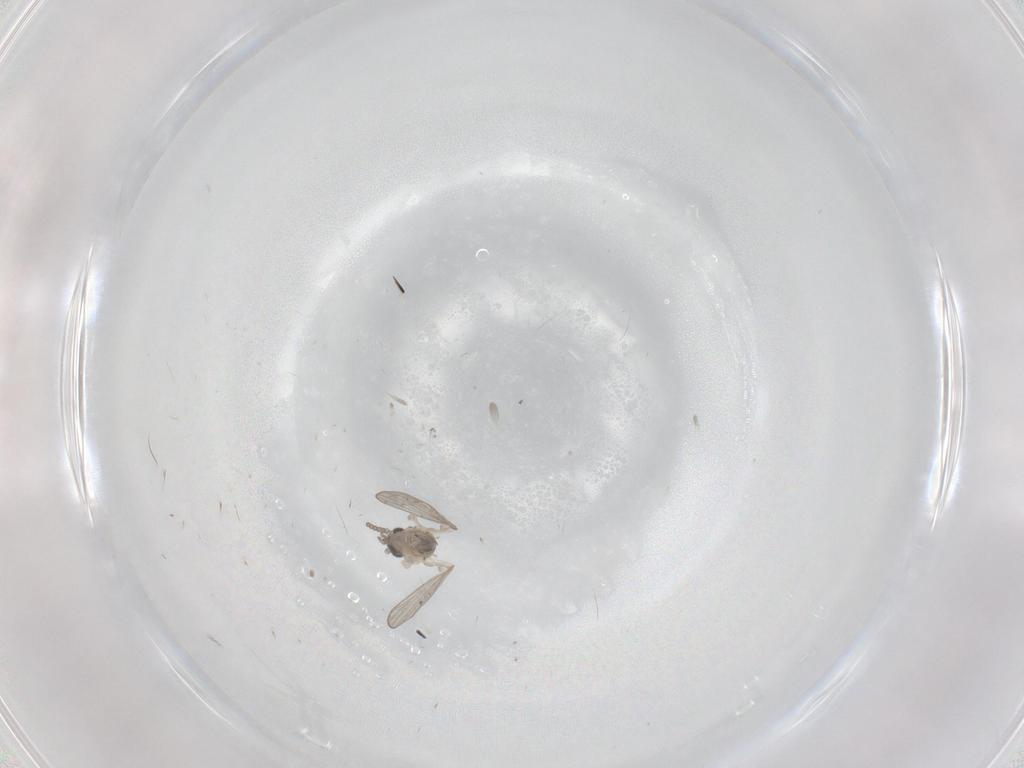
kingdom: Animalia
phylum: Arthropoda
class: Insecta
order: Diptera
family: Psychodidae
